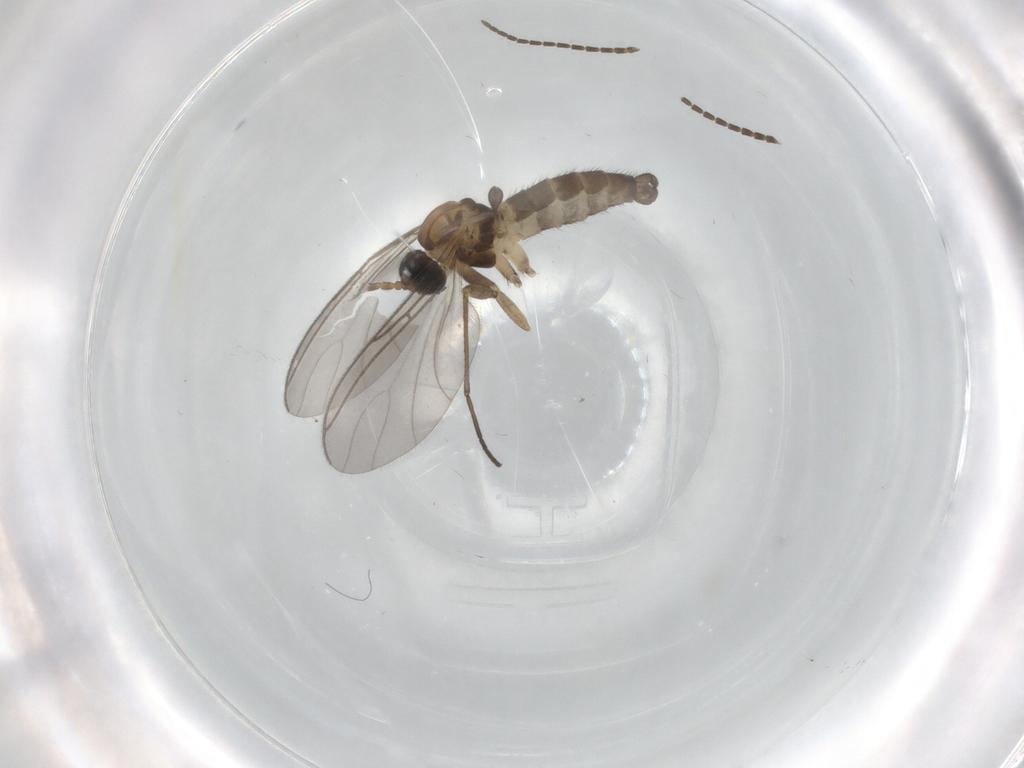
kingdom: Animalia
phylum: Arthropoda
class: Insecta
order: Diptera
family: Sciaridae
